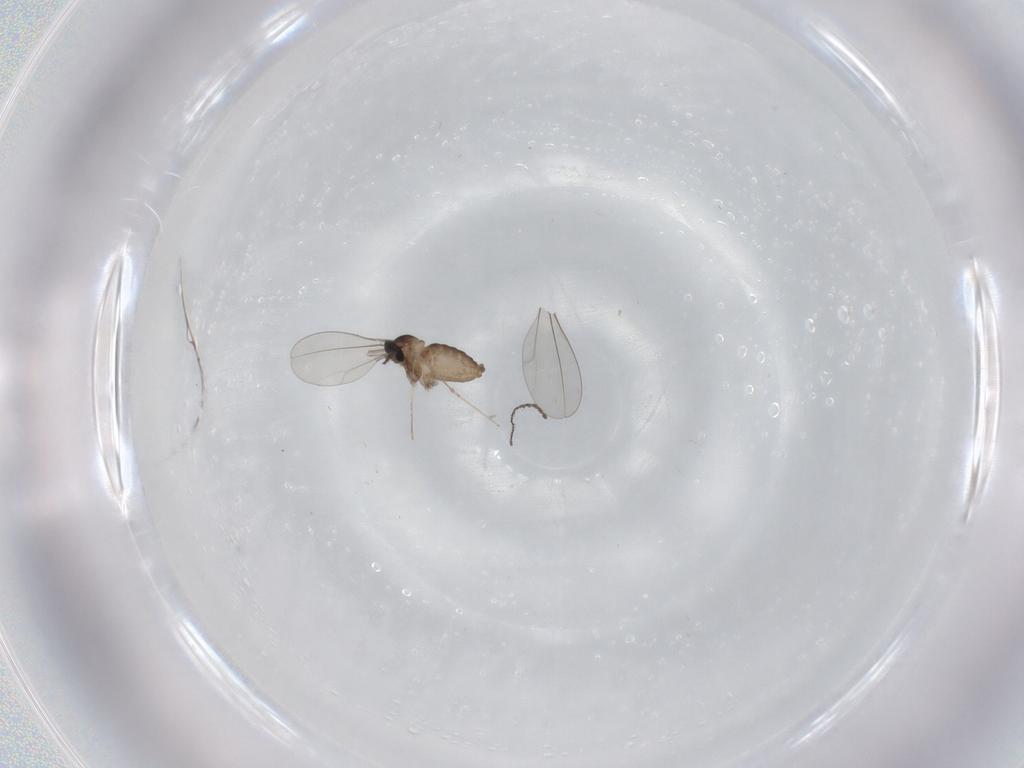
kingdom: Animalia
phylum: Arthropoda
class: Insecta
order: Diptera
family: Cecidomyiidae
